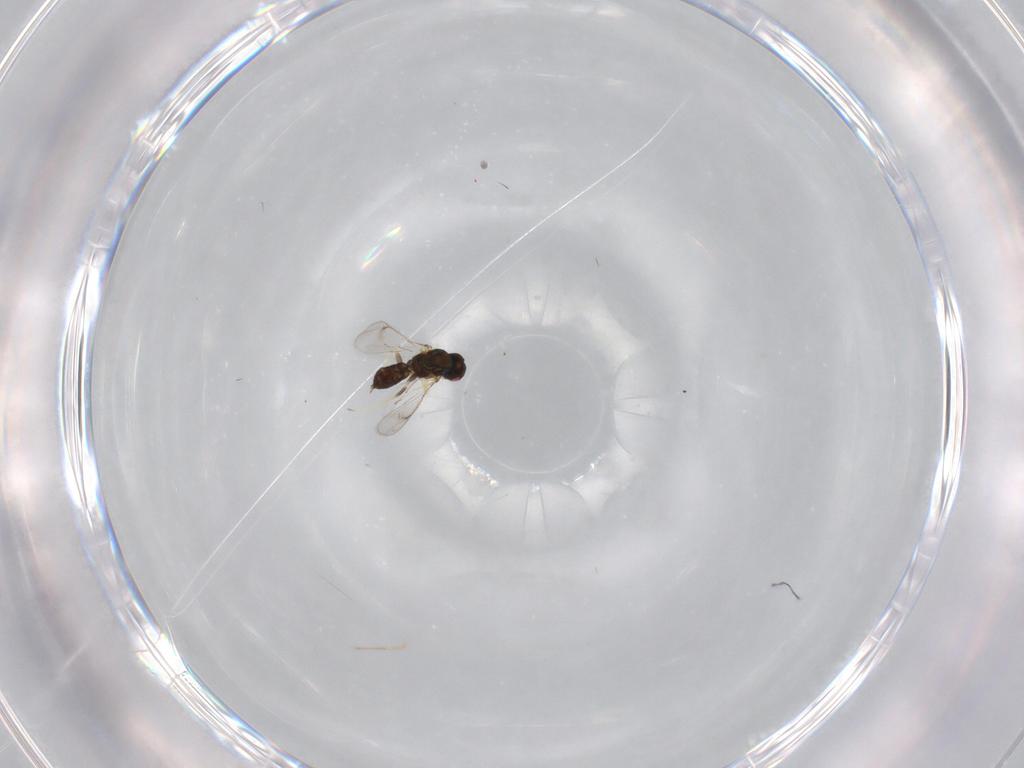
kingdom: Animalia
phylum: Arthropoda
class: Insecta
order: Hymenoptera
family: Eulophidae
